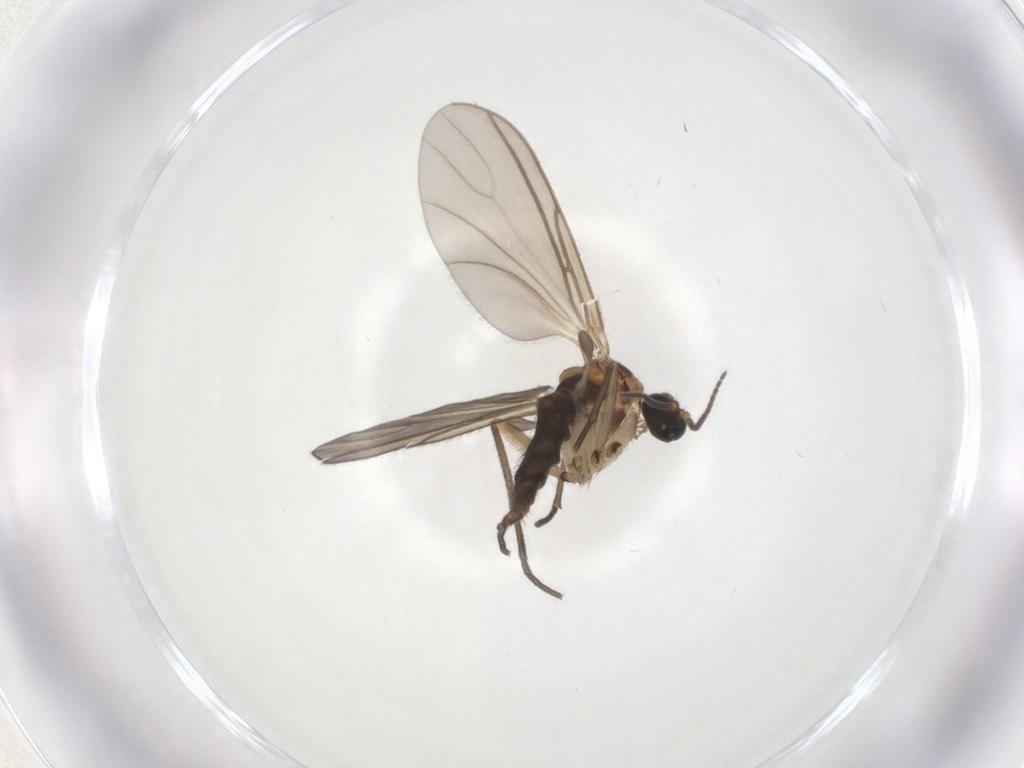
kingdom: Animalia
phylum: Arthropoda
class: Insecta
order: Diptera
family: Sciaridae
